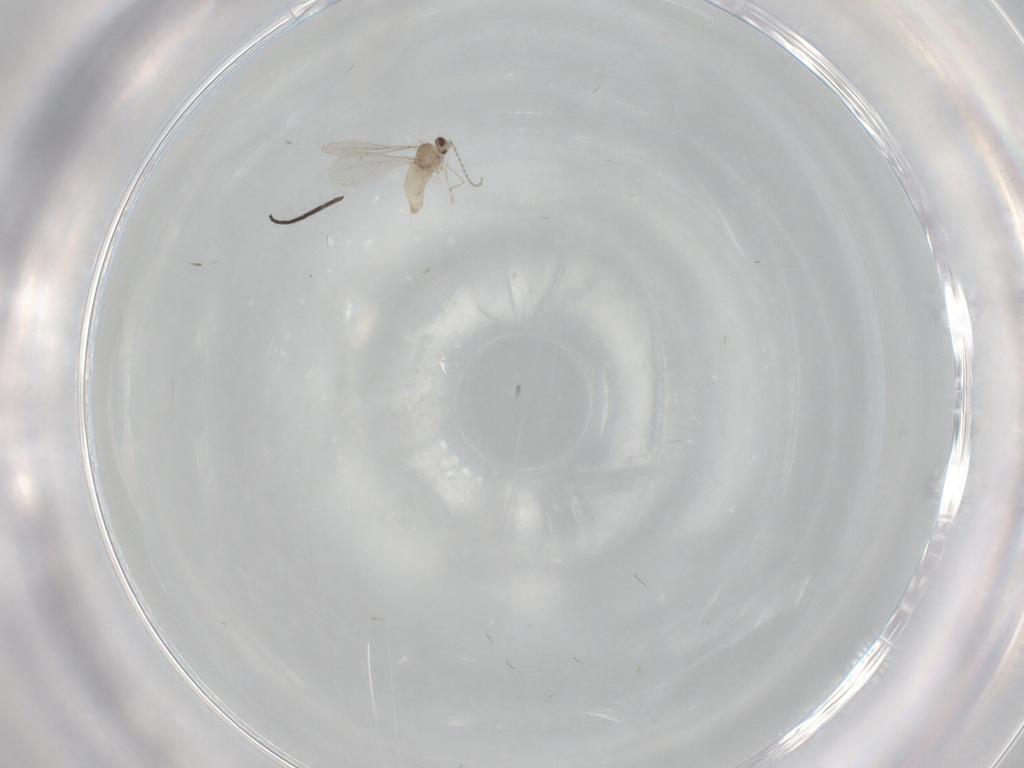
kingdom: Animalia
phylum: Arthropoda
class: Insecta
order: Diptera
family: Cecidomyiidae
